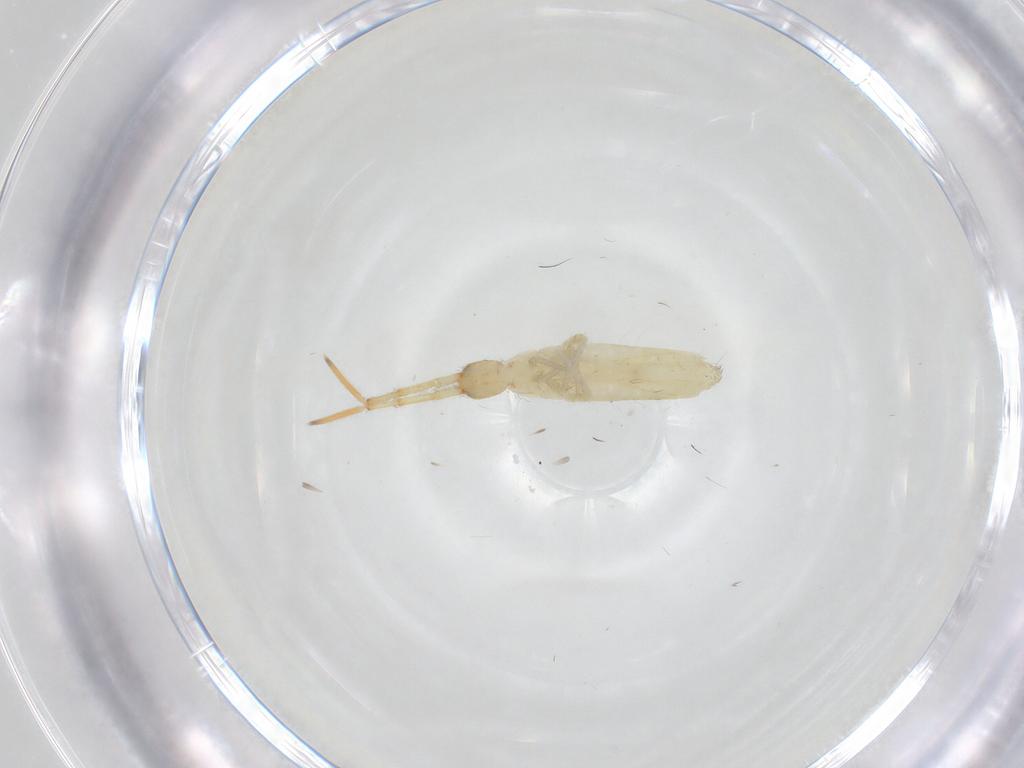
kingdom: Animalia
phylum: Arthropoda
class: Collembola
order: Entomobryomorpha
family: Entomobryidae
